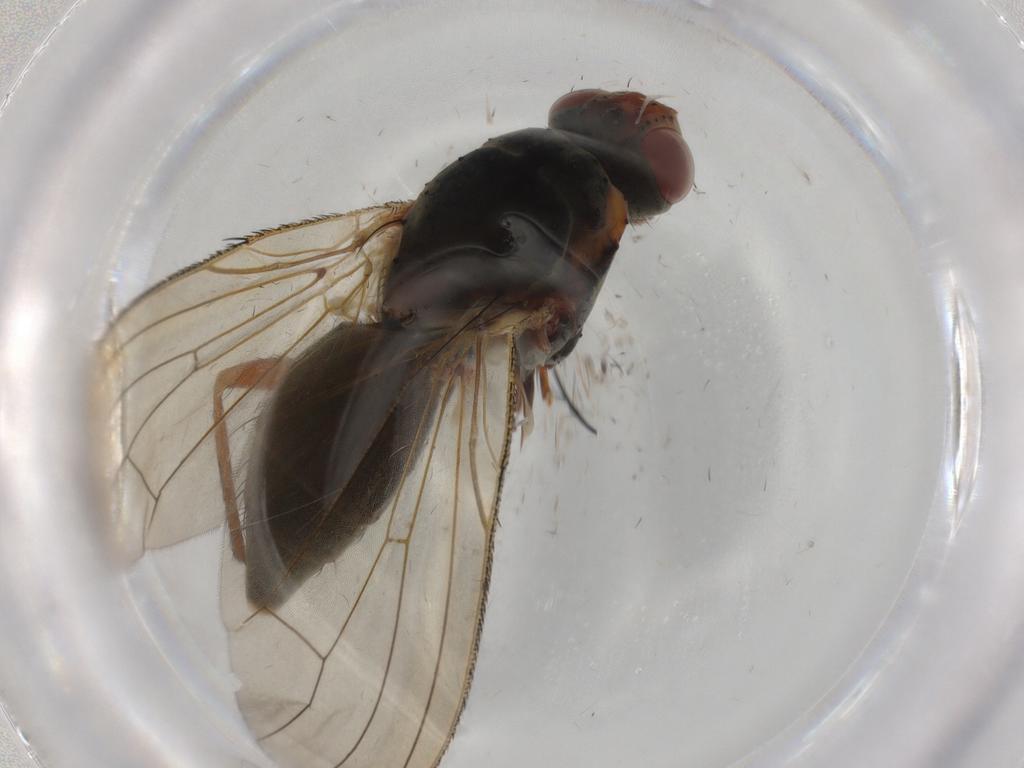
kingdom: Animalia
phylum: Arthropoda
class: Insecta
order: Diptera
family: Anthomyiidae
